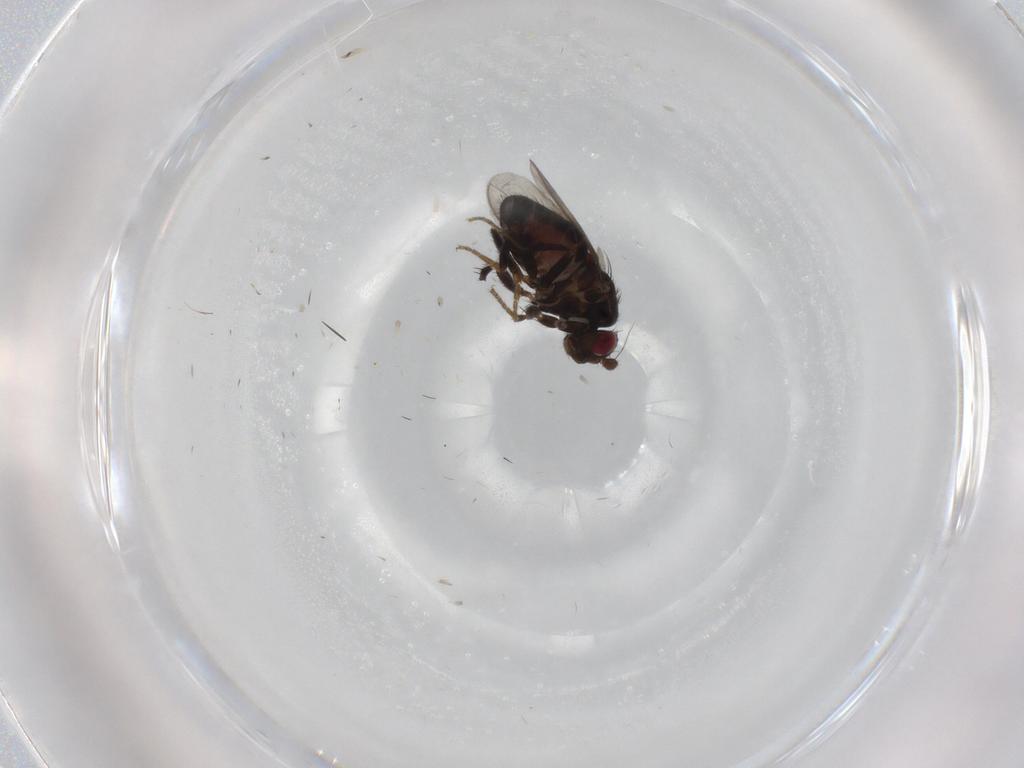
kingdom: Animalia
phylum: Arthropoda
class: Insecta
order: Diptera
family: Sphaeroceridae
